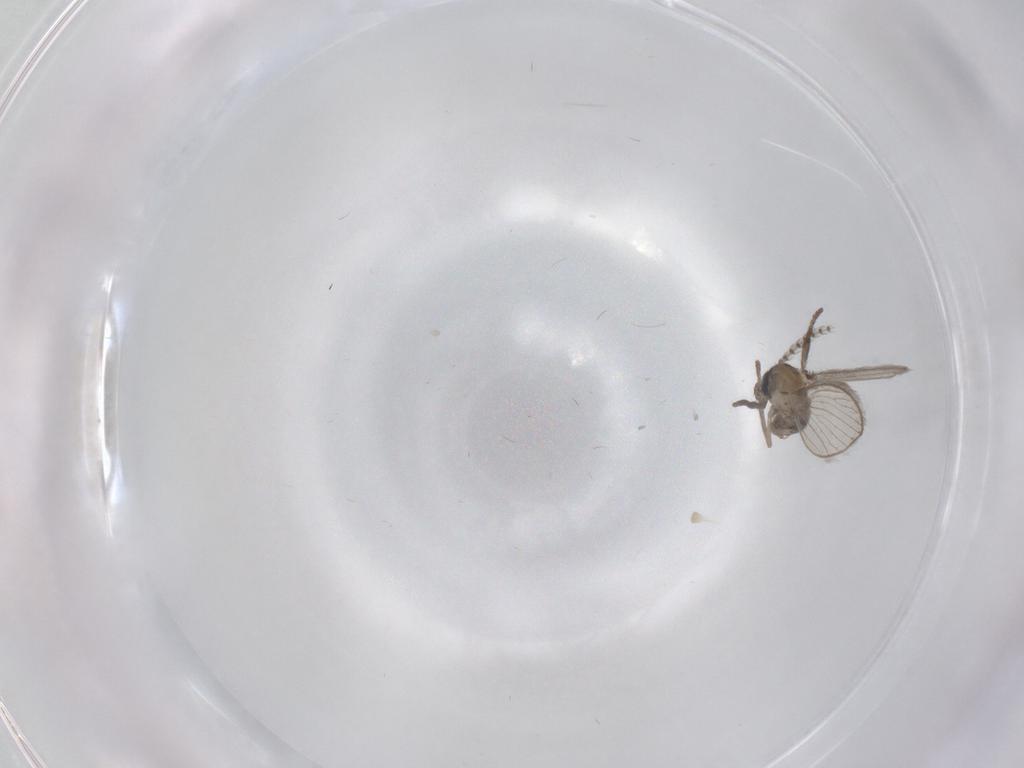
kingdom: Animalia
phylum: Arthropoda
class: Insecta
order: Diptera
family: Psychodidae
